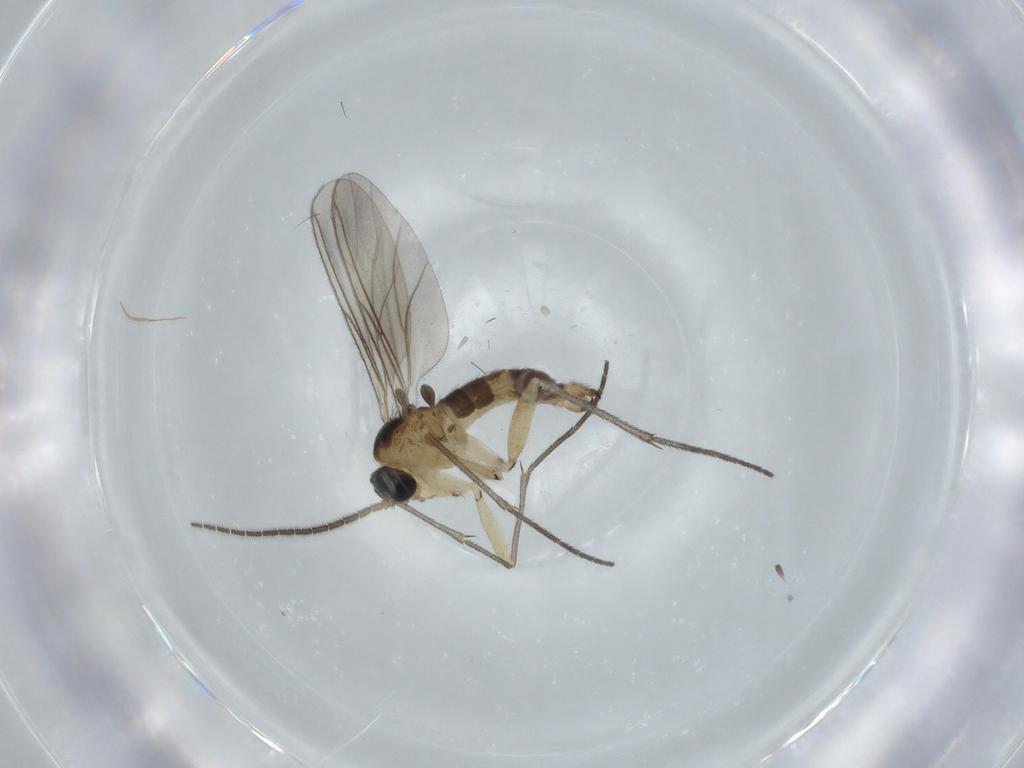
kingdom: Animalia
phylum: Arthropoda
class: Insecta
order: Diptera
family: Sciaridae
